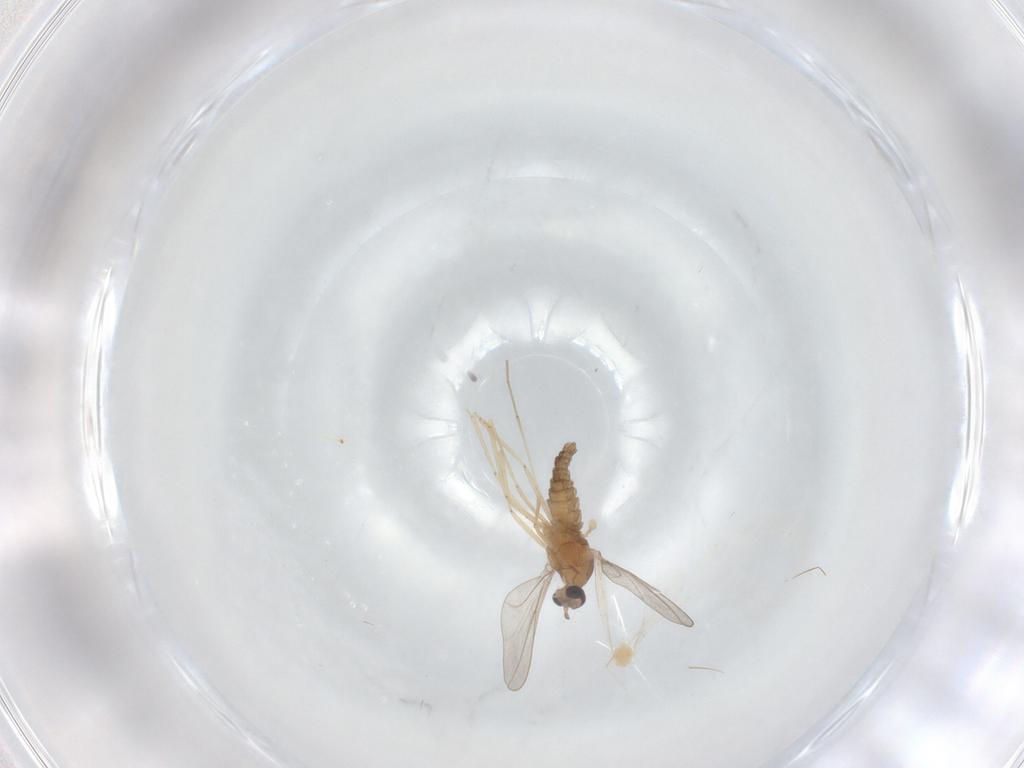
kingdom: Animalia
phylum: Arthropoda
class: Insecta
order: Diptera
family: Cecidomyiidae
